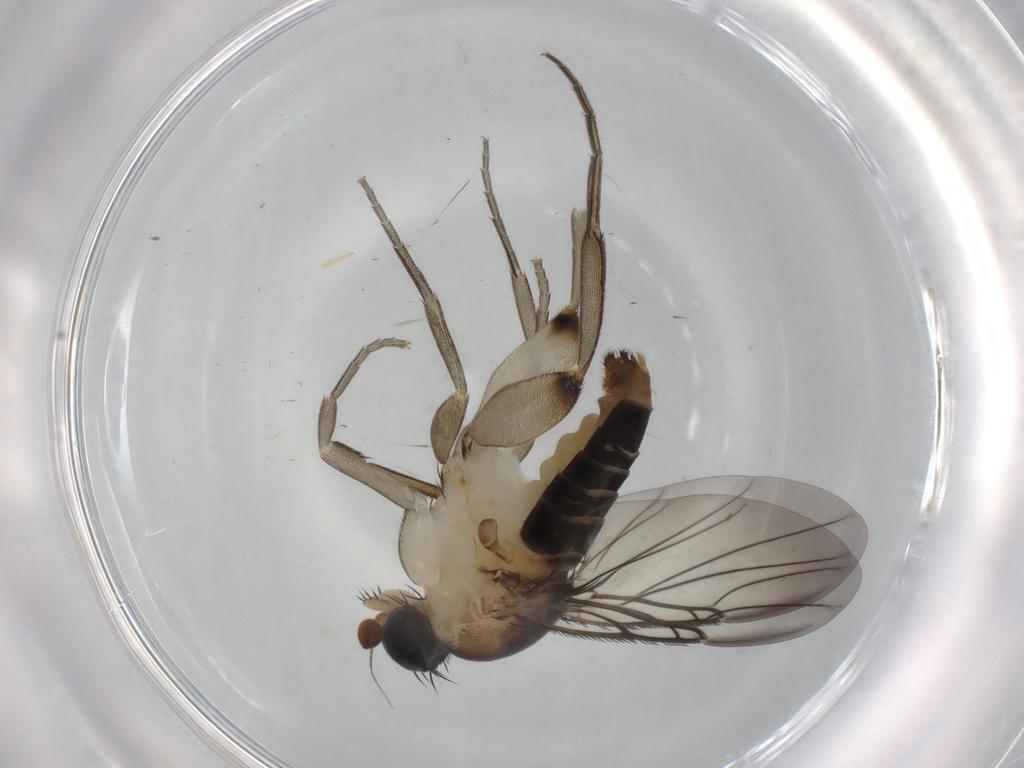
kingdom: Animalia
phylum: Arthropoda
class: Insecta
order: Diptera
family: Phoridae
